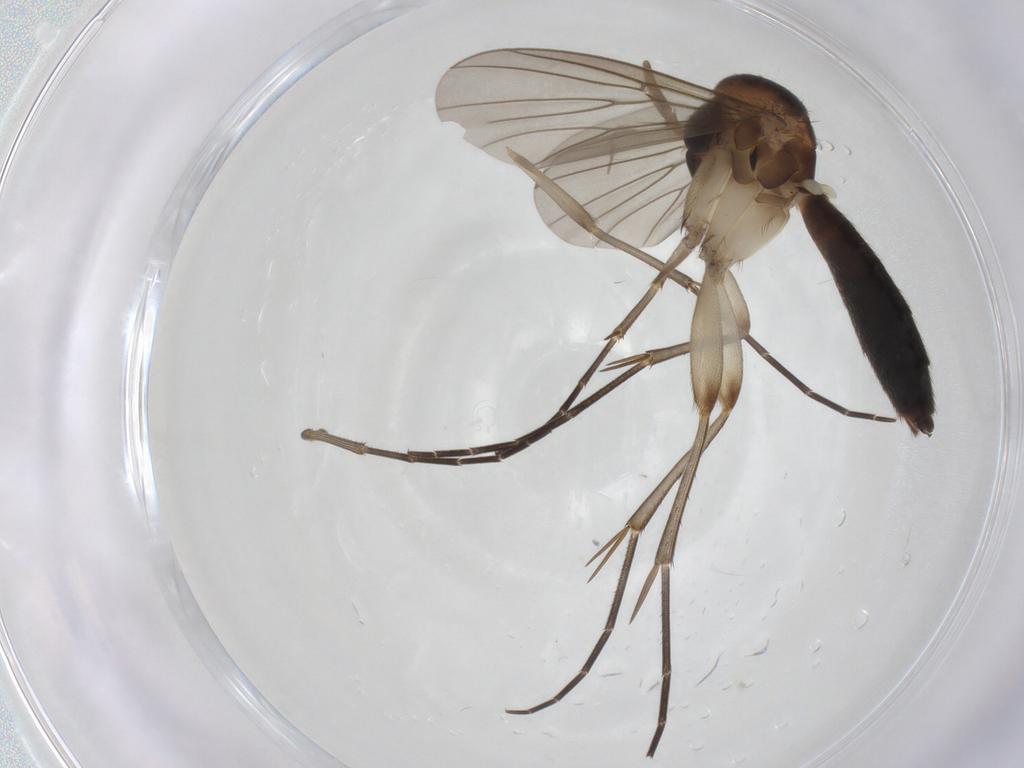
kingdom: Animalia
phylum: Arthropoda
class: Insecta
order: Diptera
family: Mycetophilidae
